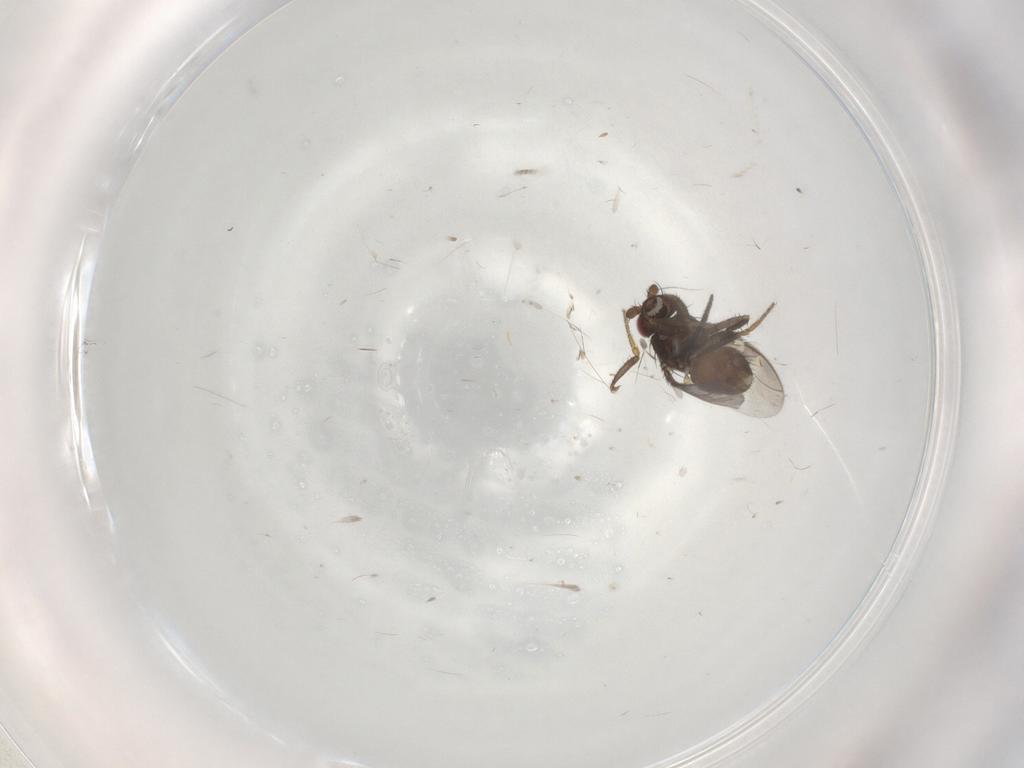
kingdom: Animalia
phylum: Arthropoda
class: Insecta
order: Diptera
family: Sciaridae
